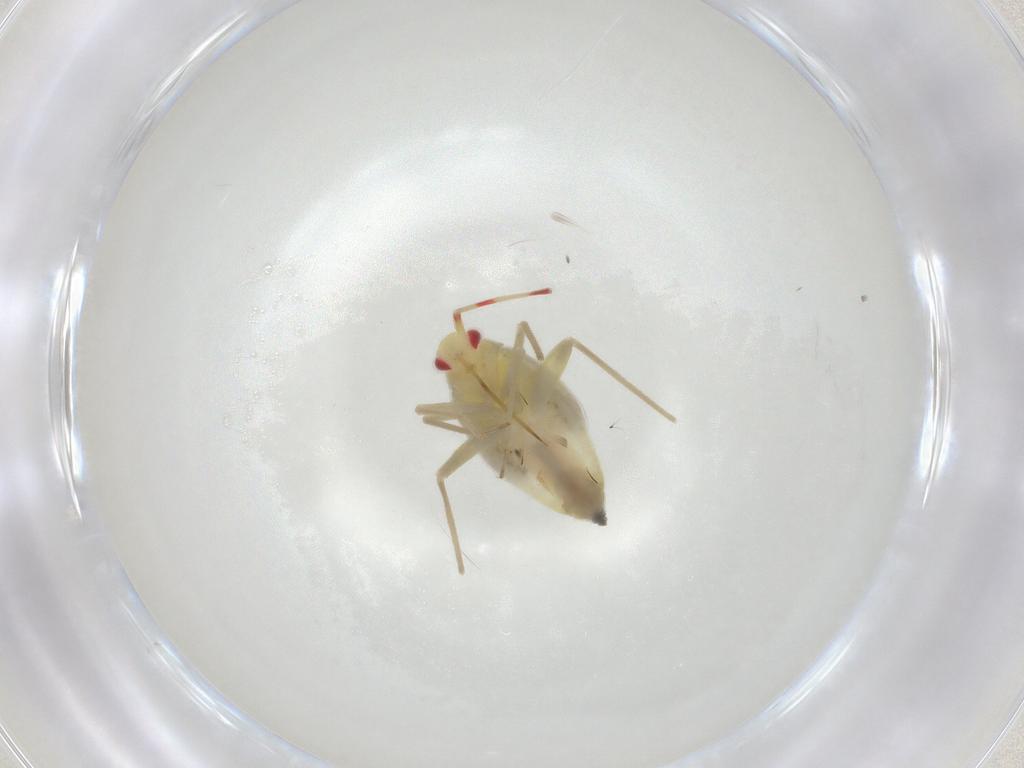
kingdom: Animalia
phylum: Arthropoda
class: Insecta
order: Hemiptera
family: Miridae
